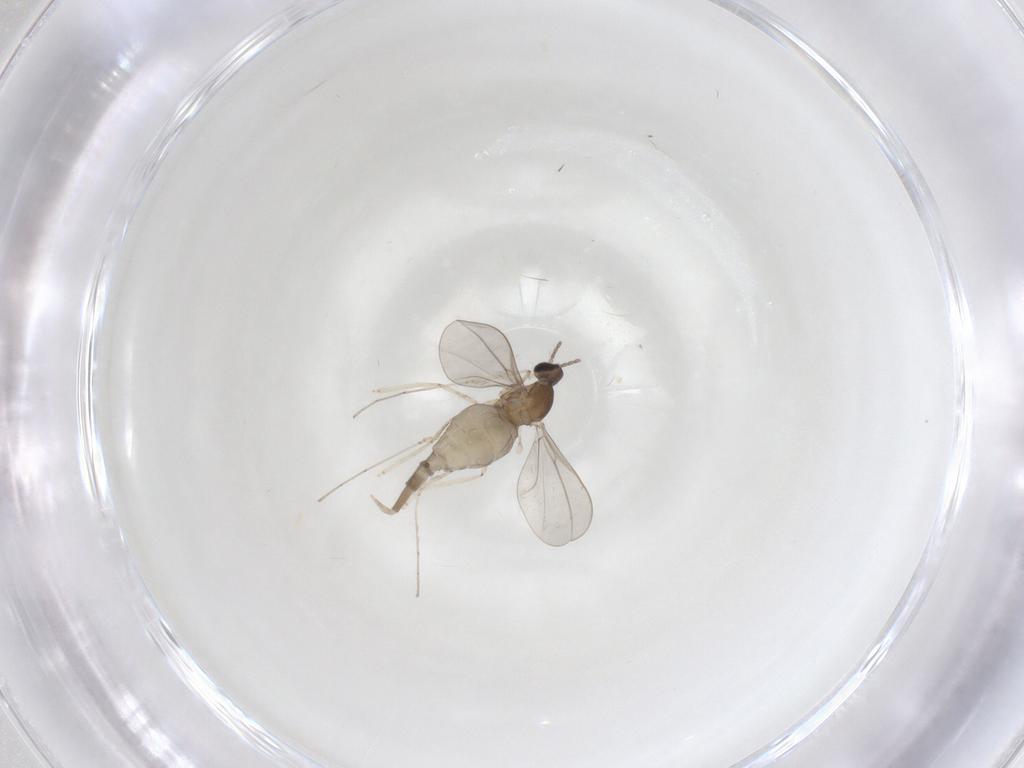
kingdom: Animalia
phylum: Arthropoda
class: Insecta
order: Diptera
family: Cecidomyiidae
